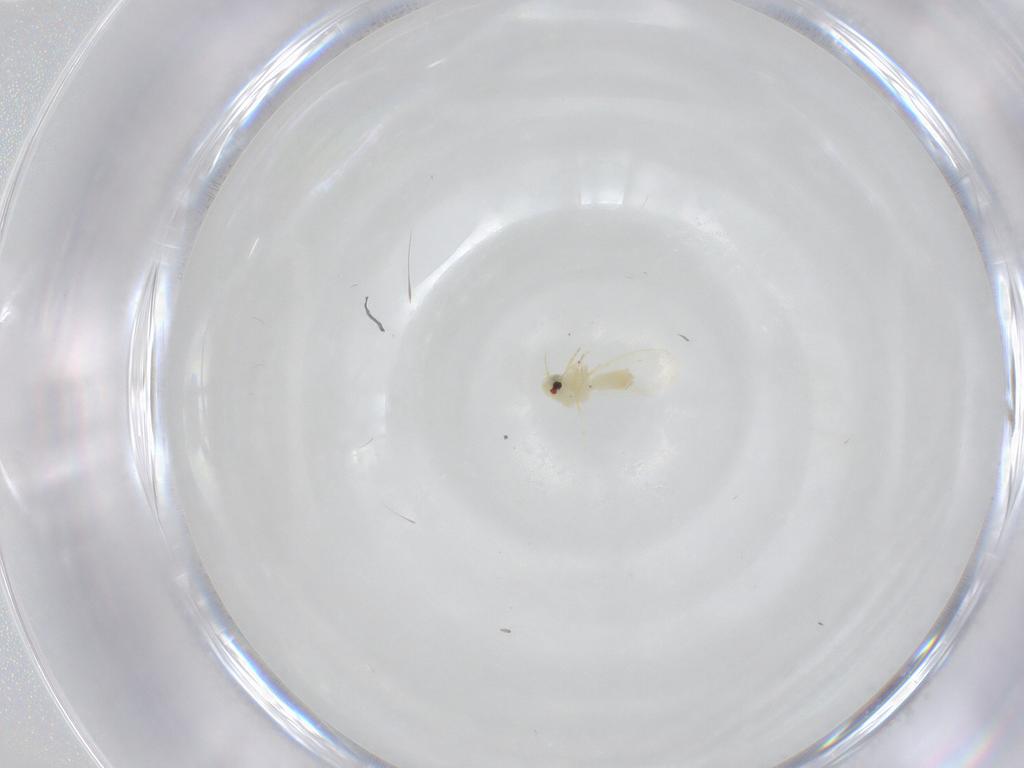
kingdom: Animalia
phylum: Arthropoda
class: Insecta
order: Hemiptera
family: Aleyrodidae
